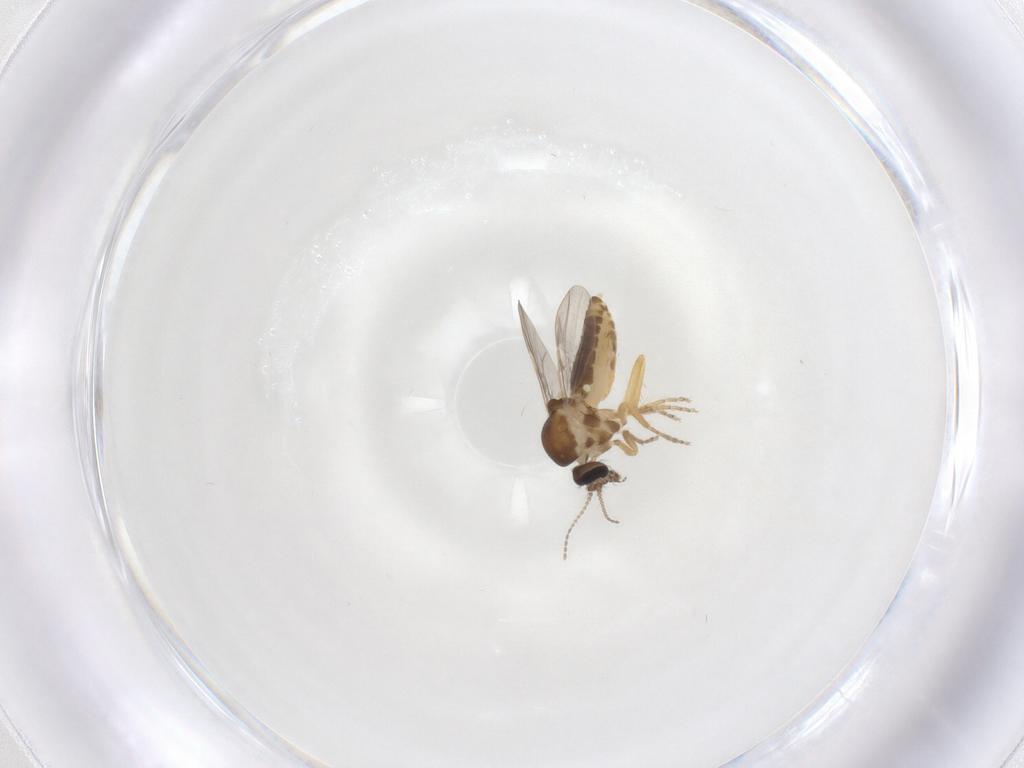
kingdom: Animalia
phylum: Arthropoda
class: Insecta
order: Diptera
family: Ceratopogonidae
